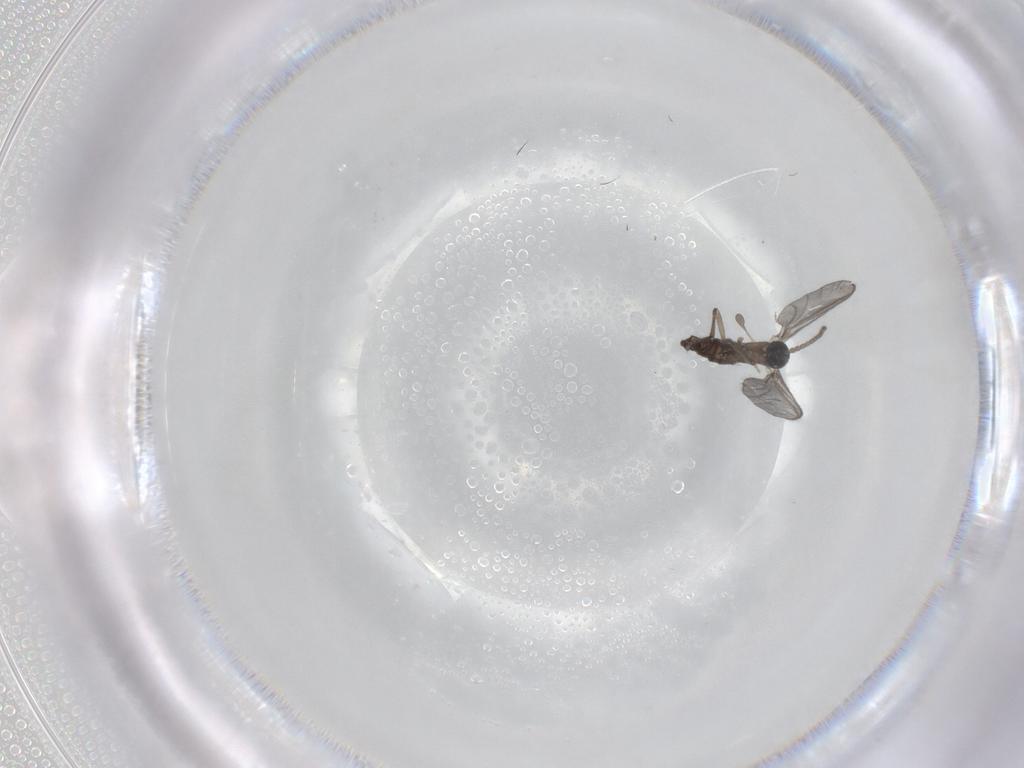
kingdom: Animalia
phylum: Arthropoda
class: Insecta
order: Diptera
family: Sciaridae
